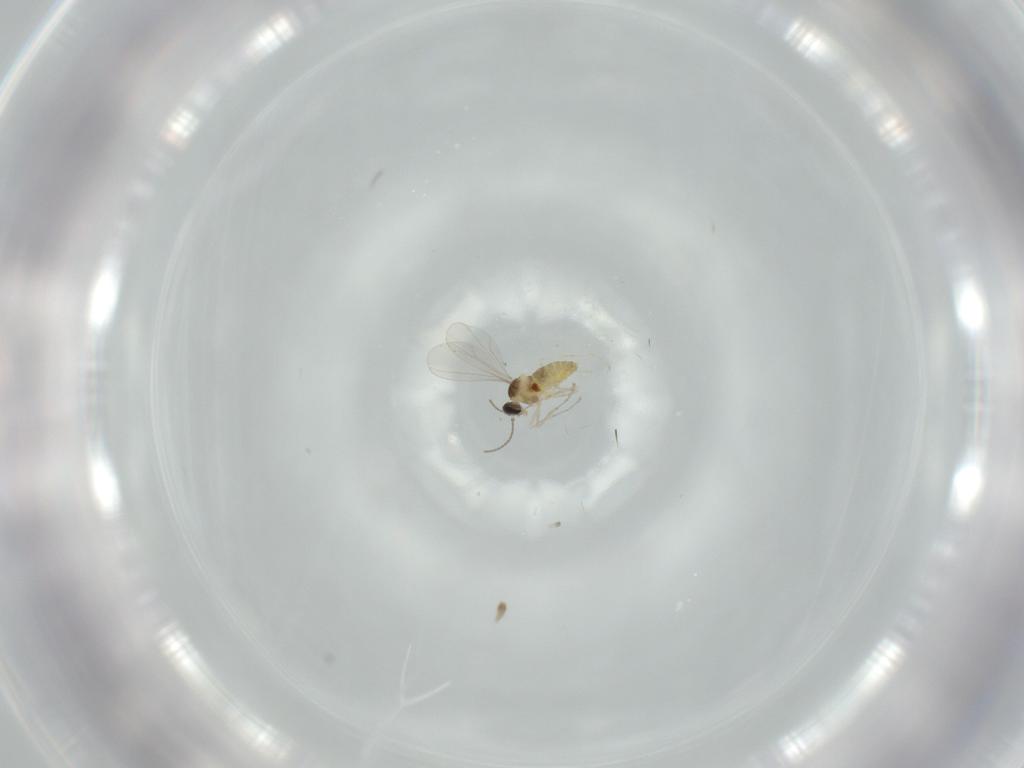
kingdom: Animalia
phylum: Arthropoda
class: Insecta
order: Diptera
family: Cecidomyiidae
